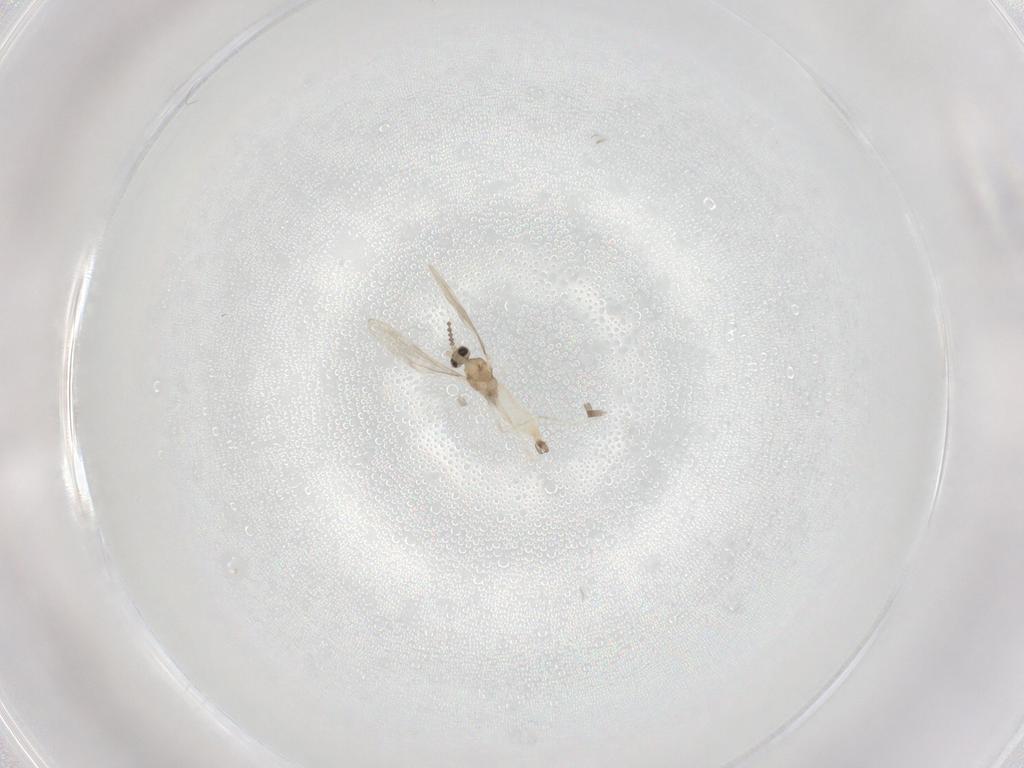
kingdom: Animalia
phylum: Arthropoda
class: Insecta
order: Diptera
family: Cecidomyiidae
